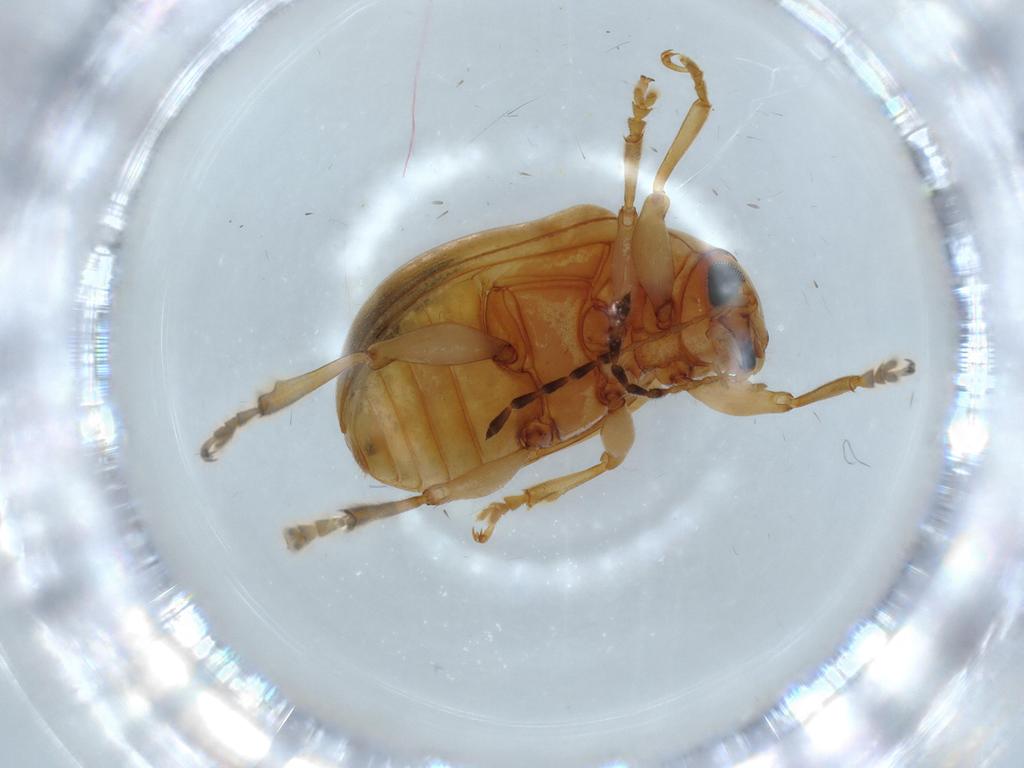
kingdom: Animalia
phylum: Arthropoda
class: Insecta
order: Coleoptera
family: Chrysomelidae
